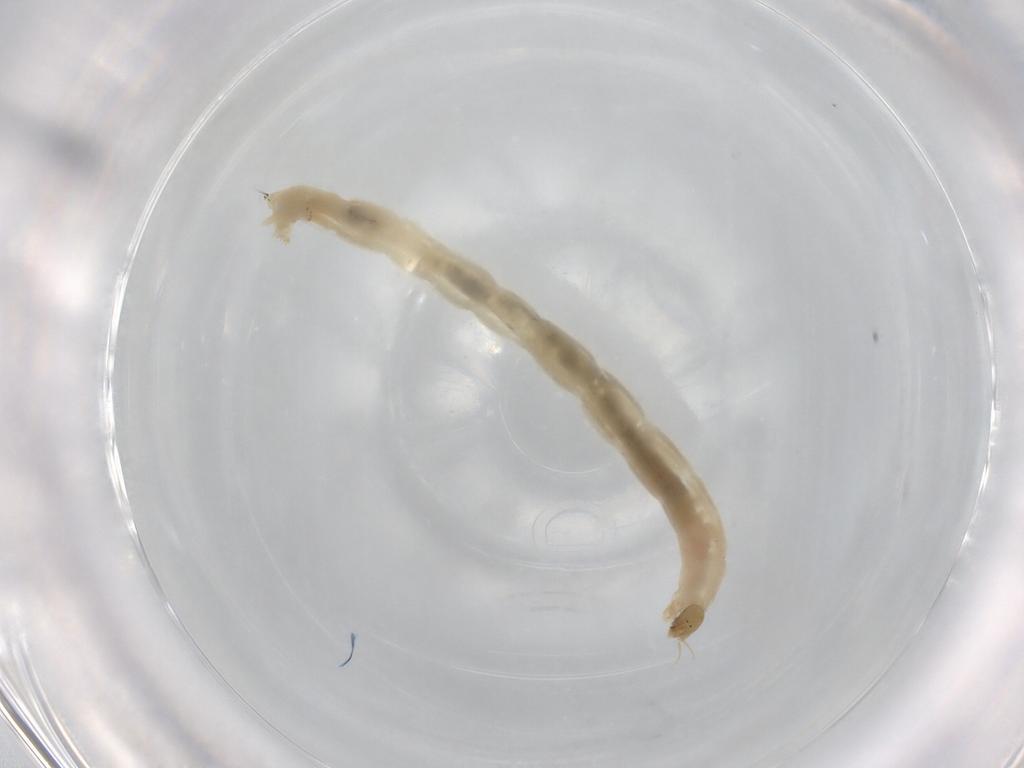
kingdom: Animalia
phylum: Arthropoda
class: Insecta
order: Diptera
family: Chironomidae
